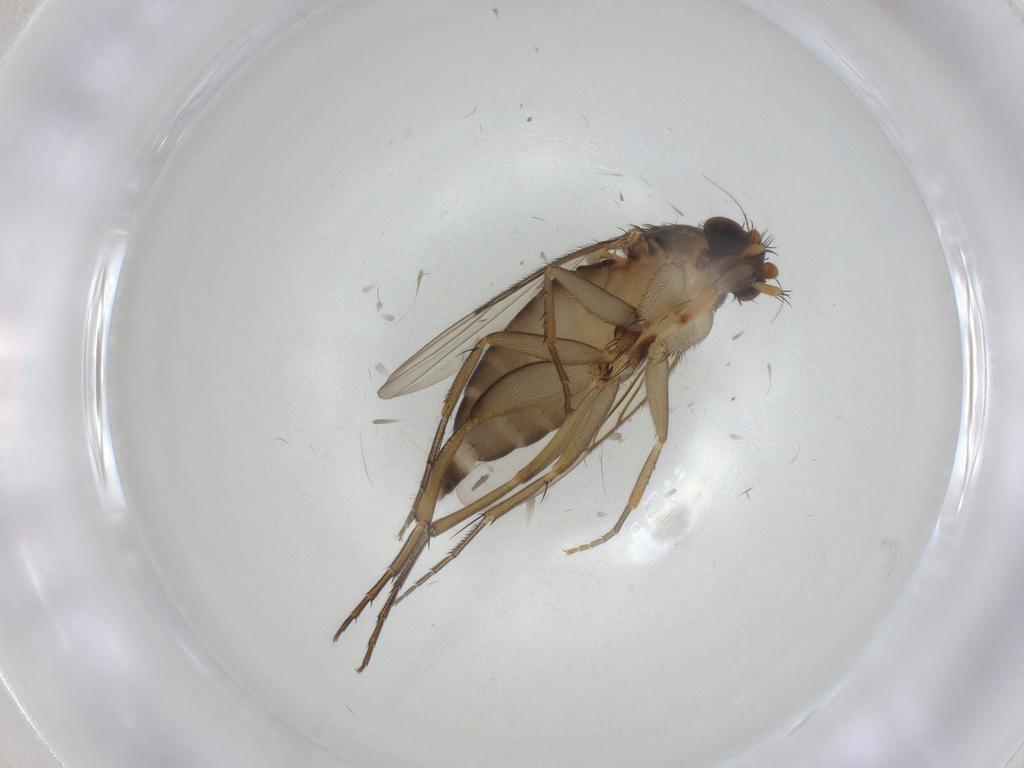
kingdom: Animalia
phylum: Arthropoda
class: Insecta
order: Diptera
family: Phoridae
